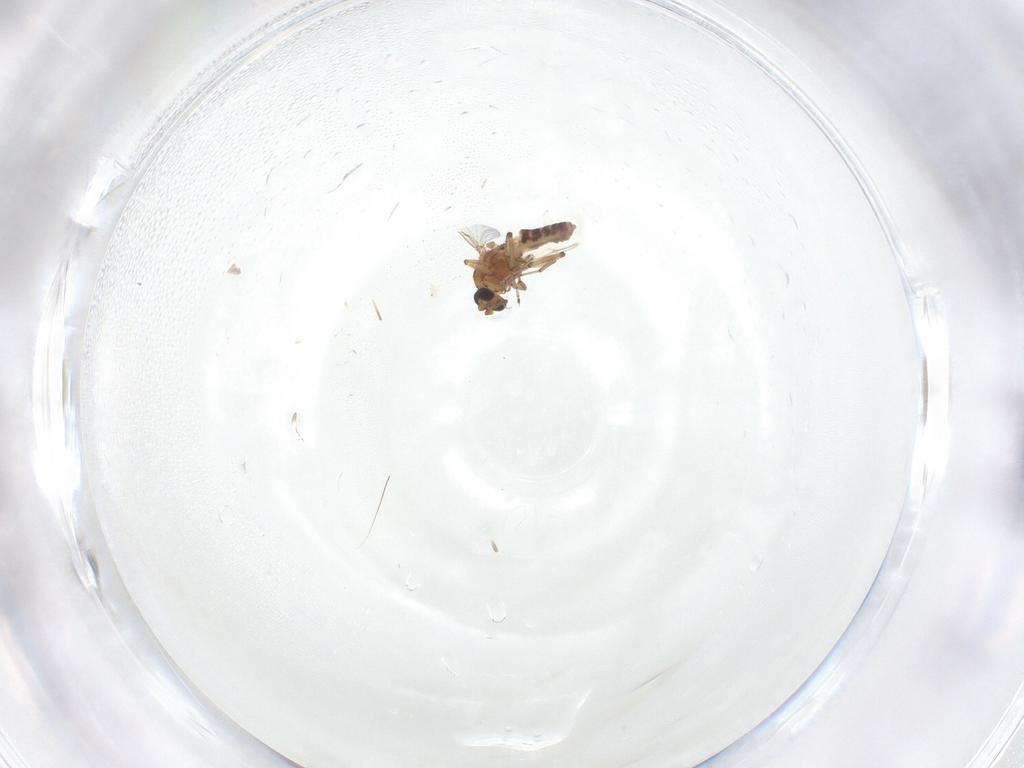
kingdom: Animalia
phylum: Arthropoda
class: Insecta
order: Diptera
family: Ceratopogonidae
